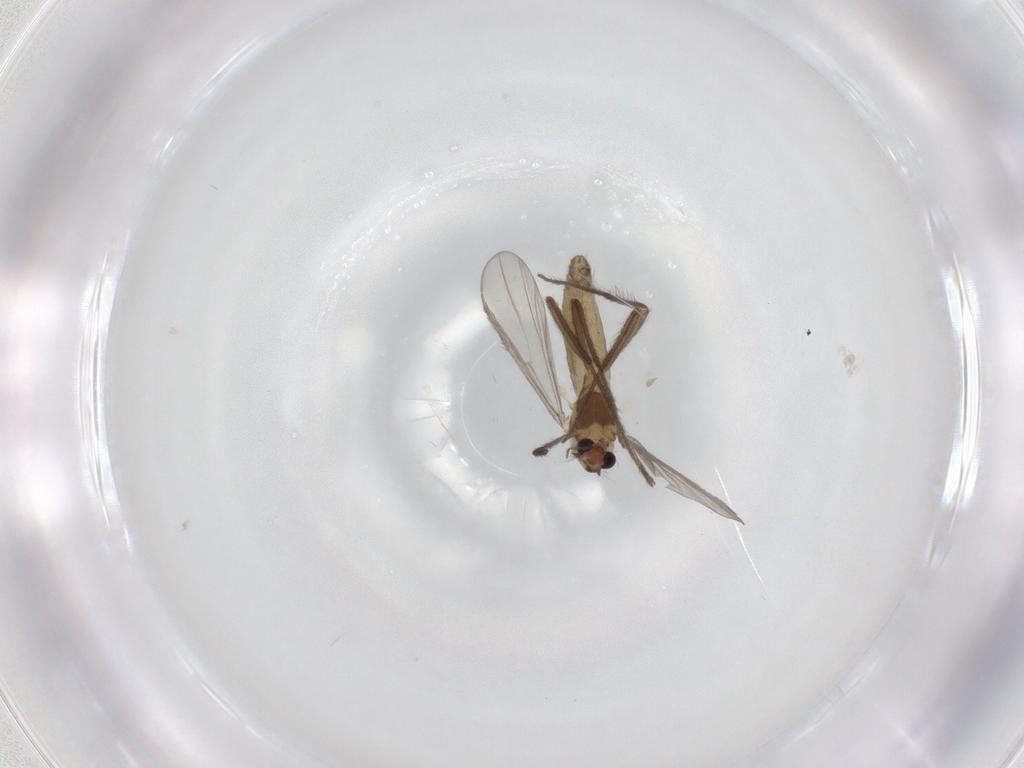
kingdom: Animalia
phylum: Arthropoda
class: Insecta
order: Diptera
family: Chironomidae
